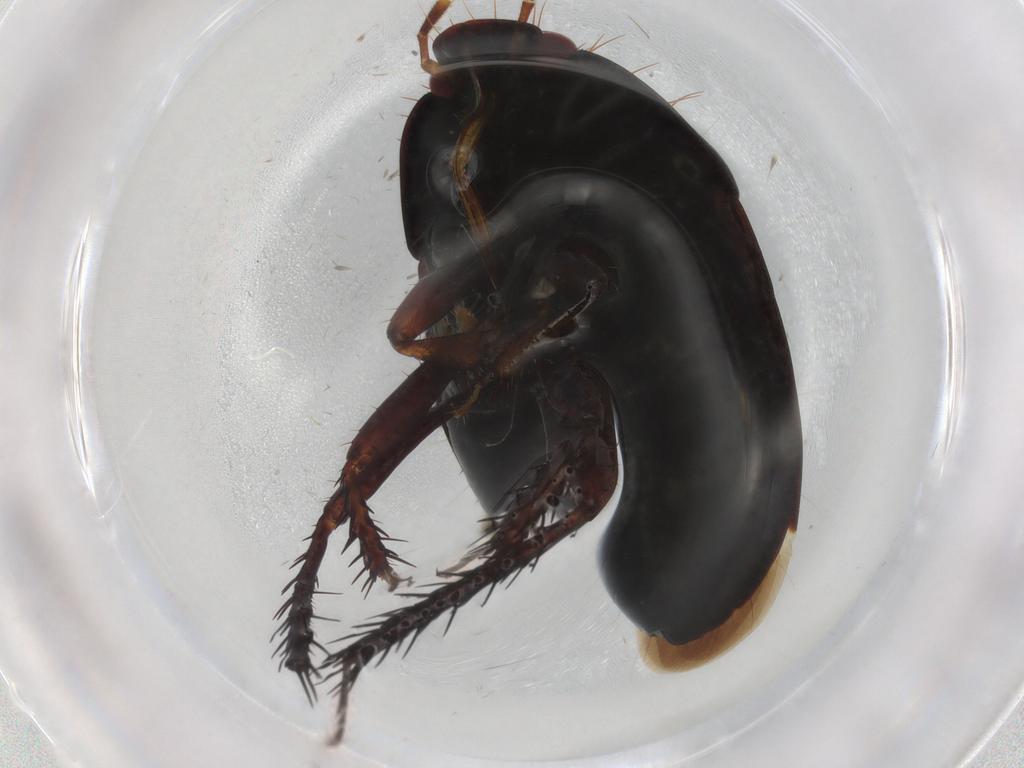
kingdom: Animalia
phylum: Arthropoda
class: Insecta
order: Hemiptera
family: Cydnidae
